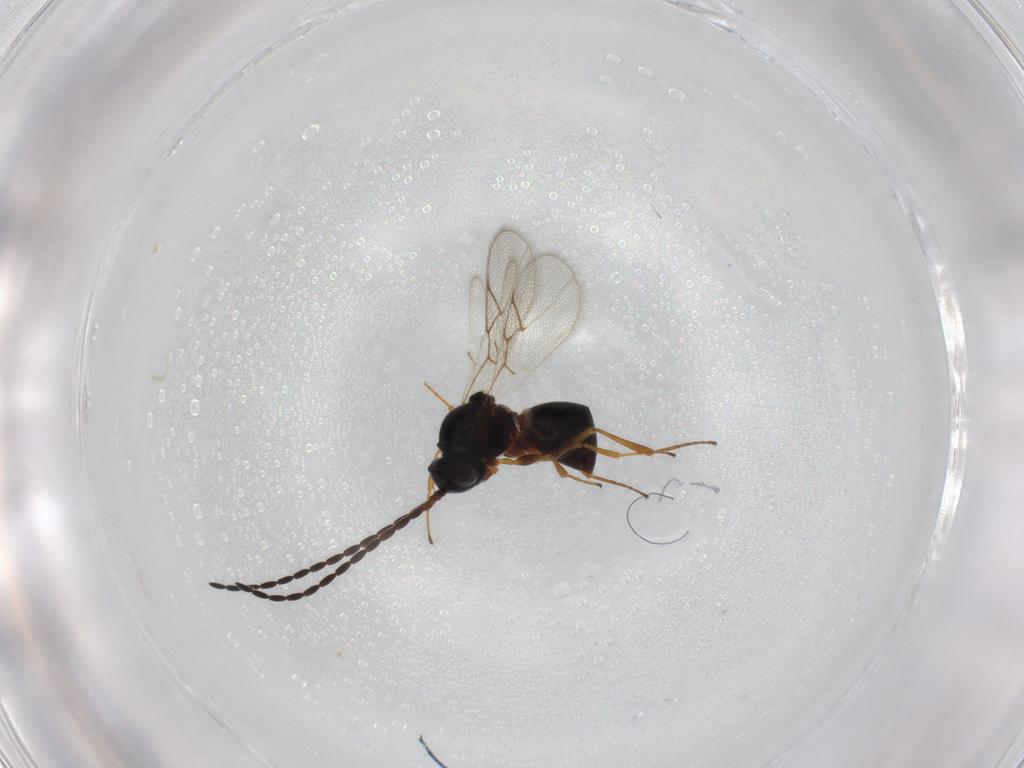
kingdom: Animalia
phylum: Arthropoda
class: Insecta
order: Hymenoptera
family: Figitidae
